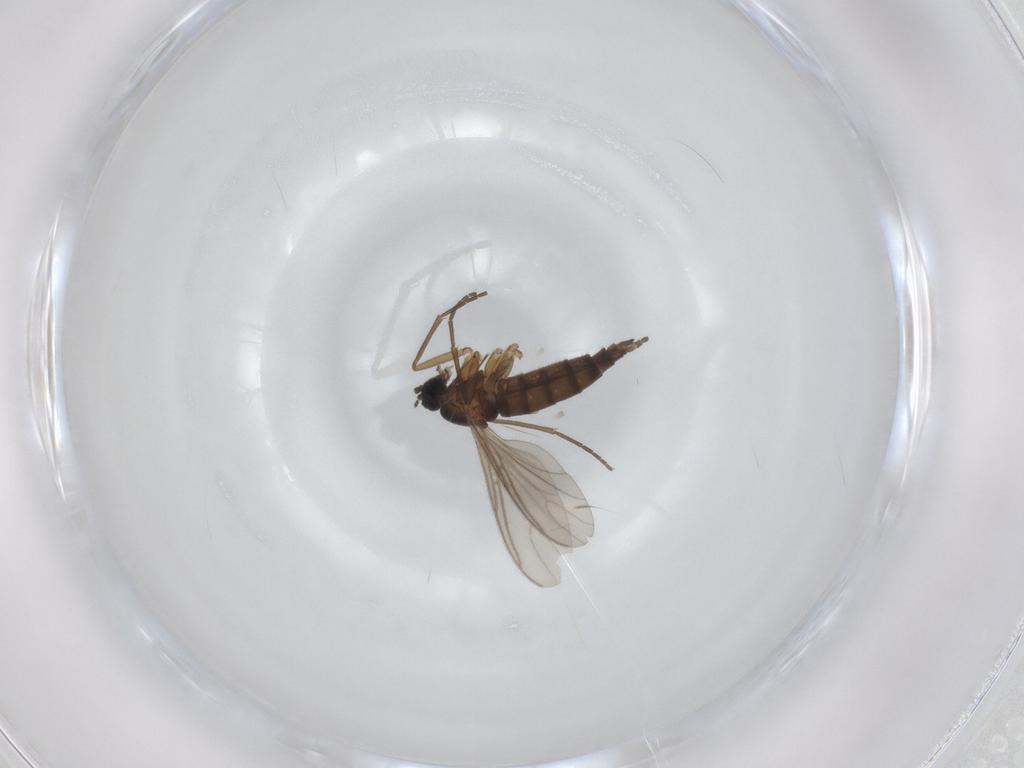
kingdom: Animalia
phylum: Arthropoda
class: Insecta
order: Diptera
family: Sciaridae
